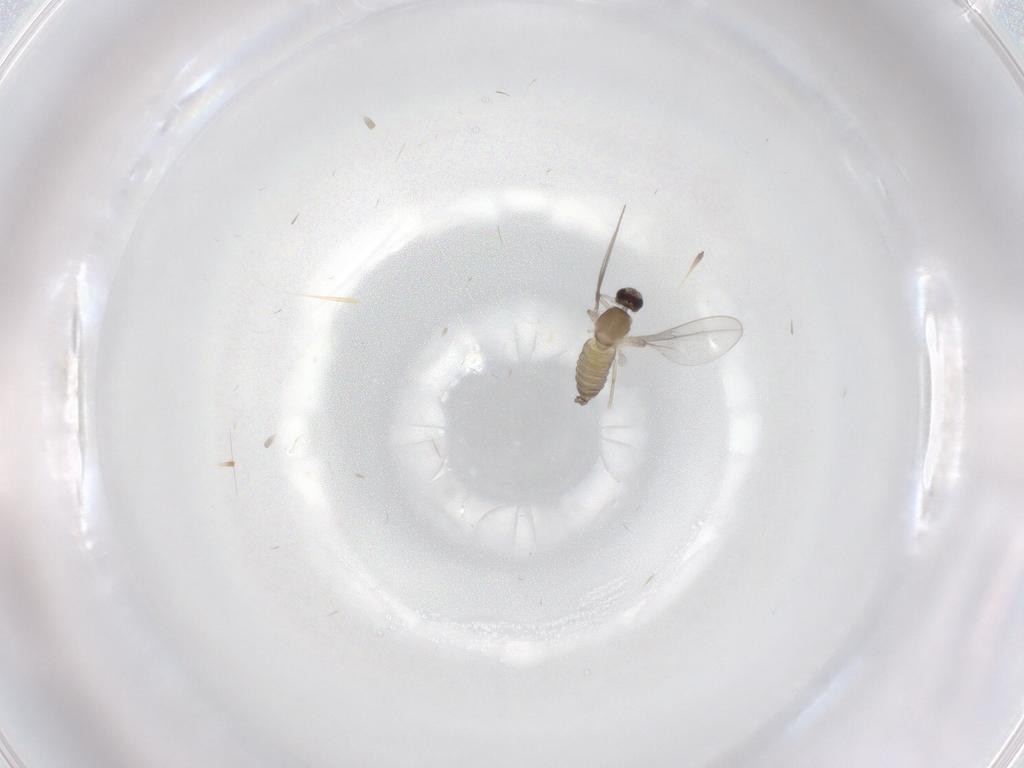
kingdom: Animalia
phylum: Arthropoda
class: Insecta
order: Diptera
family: Cecidomyiidae
